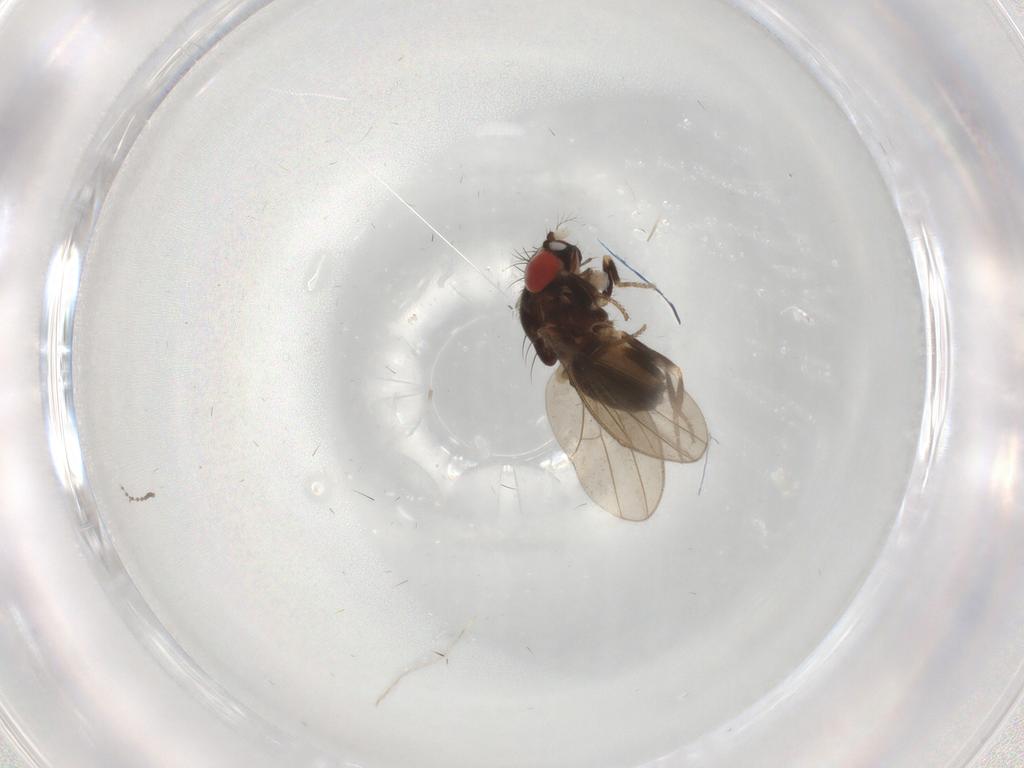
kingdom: Animalia
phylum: Arthropoda
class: Insecta
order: Diptera
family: Cecidomyiidae
